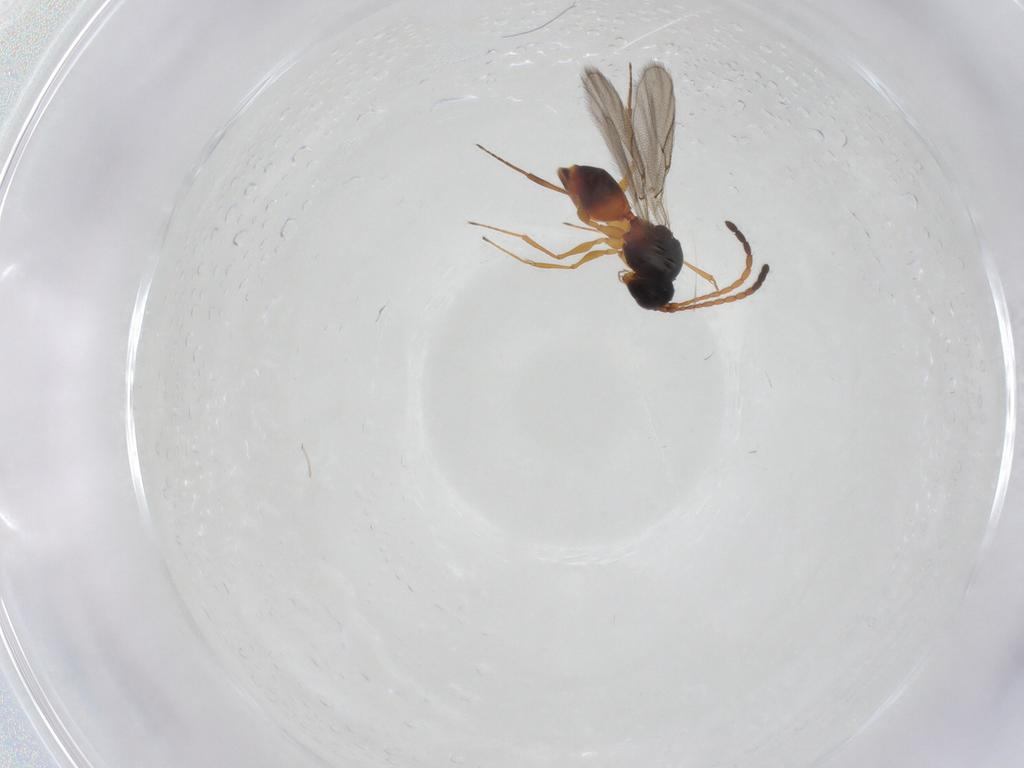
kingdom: Animalia
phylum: Arthropoda
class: Insecta
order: Hymenoptera
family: Figitidae
